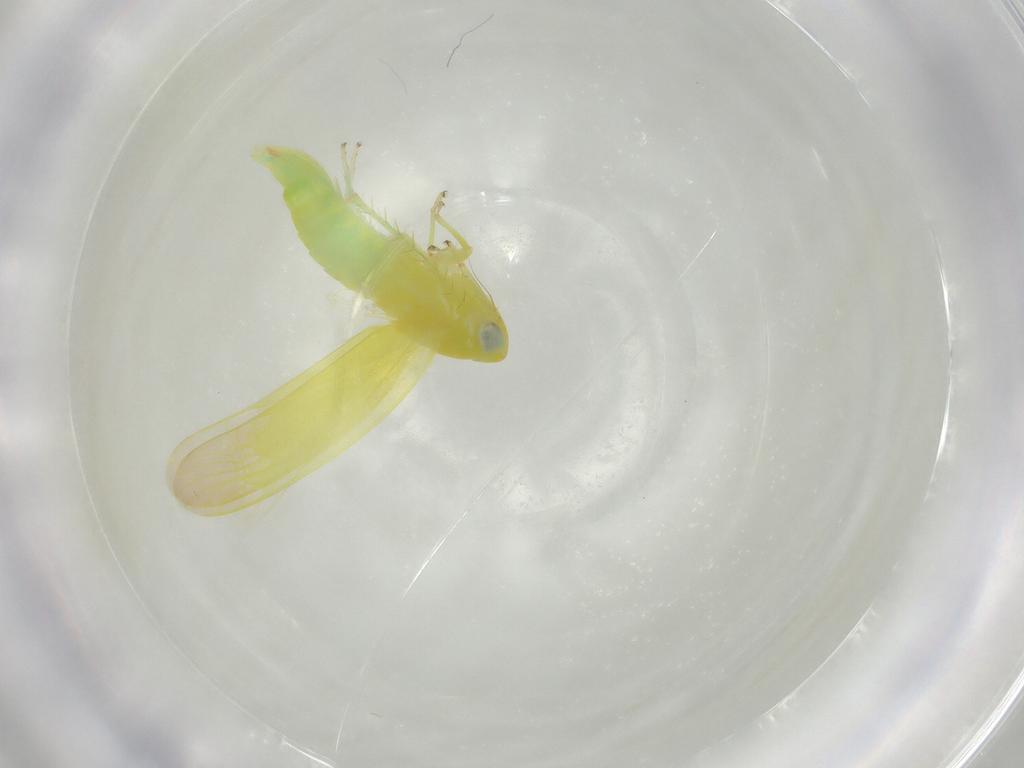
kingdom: Animalia
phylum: Arthropoda
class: Insecta
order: Hemiptera
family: Cicadellidae
